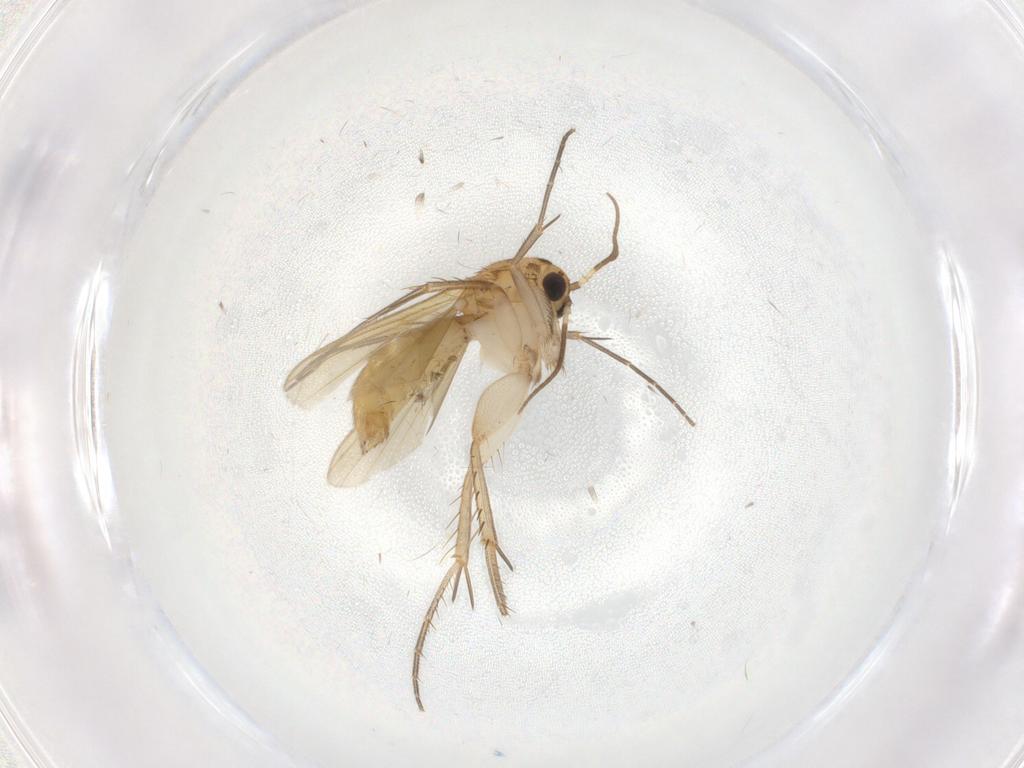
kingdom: Animalia
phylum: Arthropoda
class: Insecta
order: Diptera
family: Mycetophilidae
